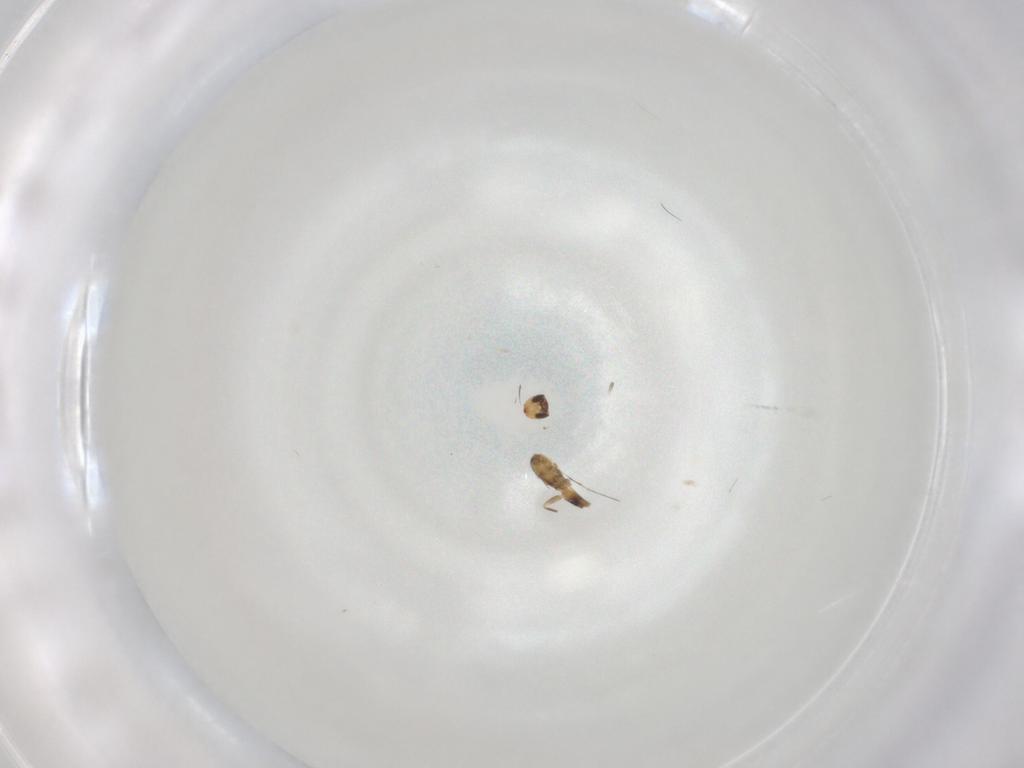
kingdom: Animalia
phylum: Arthropoda
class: Insecta
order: Hymenoptera
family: Mymaridae
